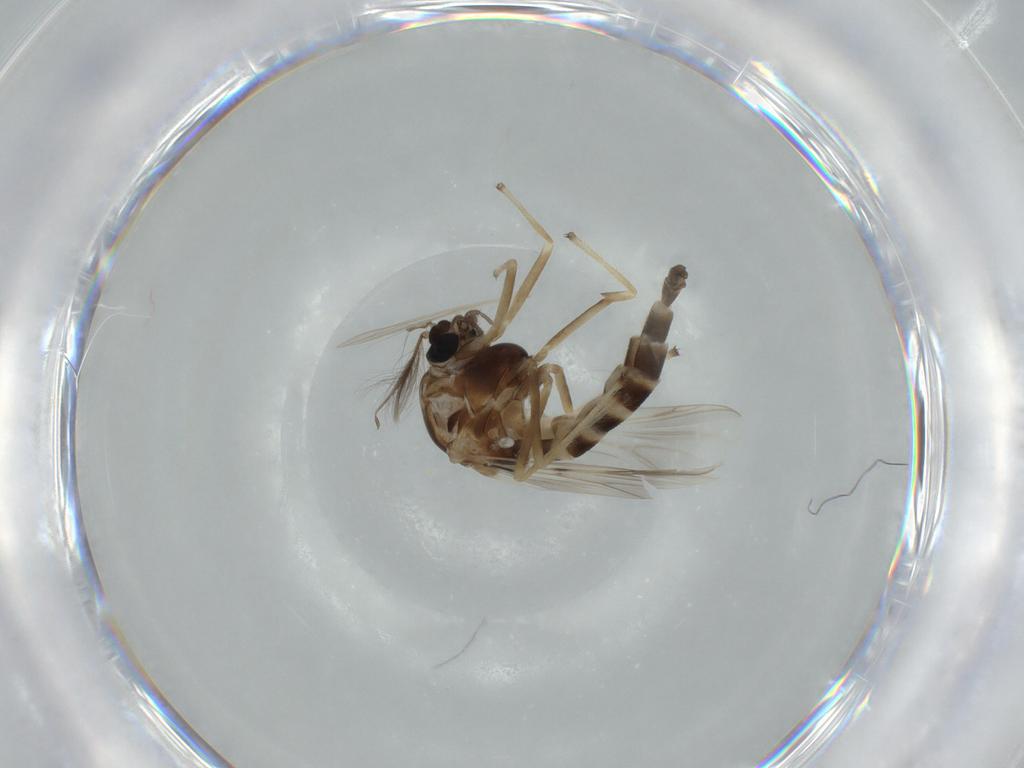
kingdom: Animalia
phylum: Arthropoda
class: Insecta
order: Diptera
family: Chironomidae
